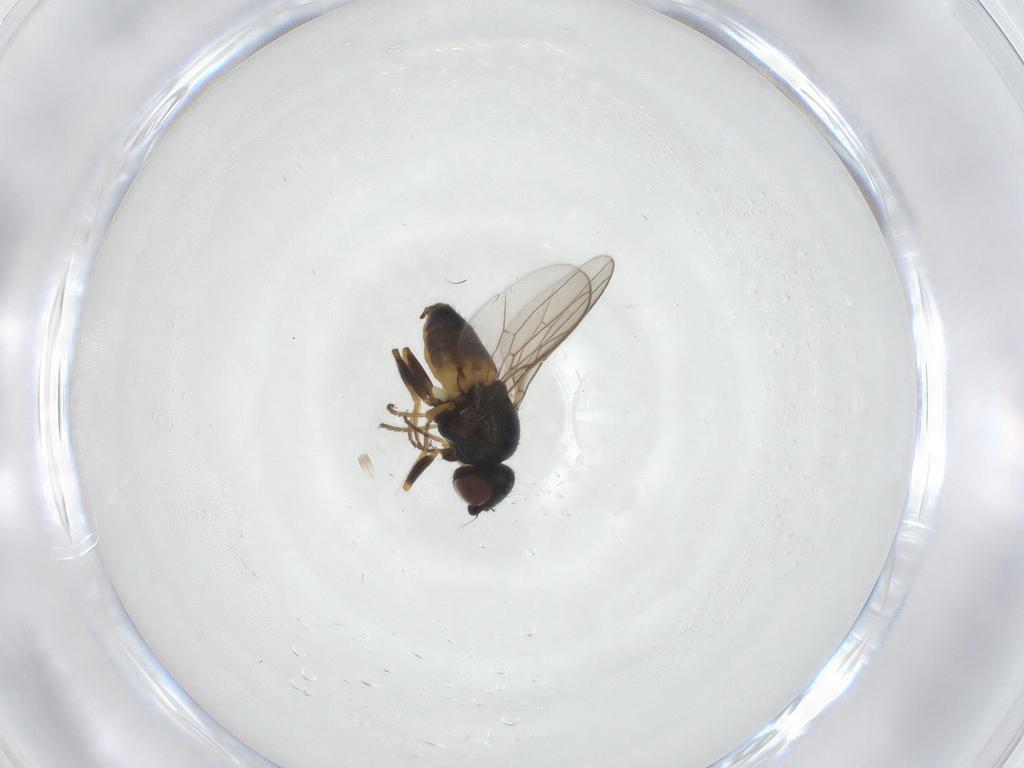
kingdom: Animalia
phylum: Arthropoda
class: Insecta
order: Diptera
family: Chloropidae
